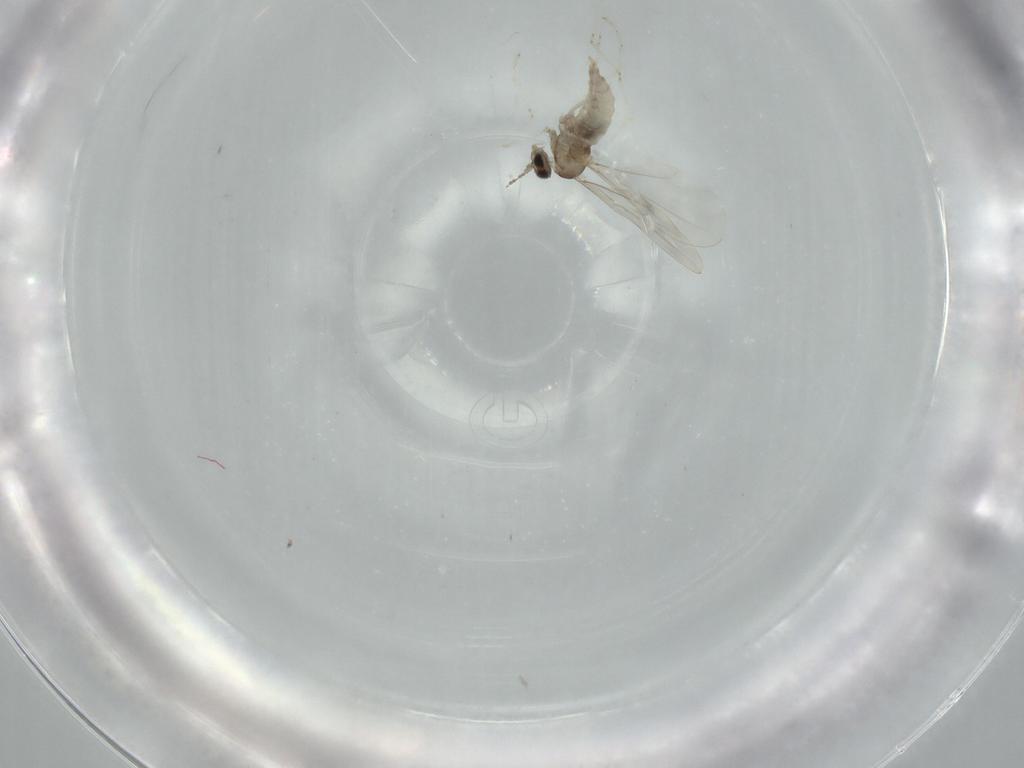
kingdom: Animalia
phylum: Arthropoda
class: Insecta
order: Diptera
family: Cecidomyiidae
